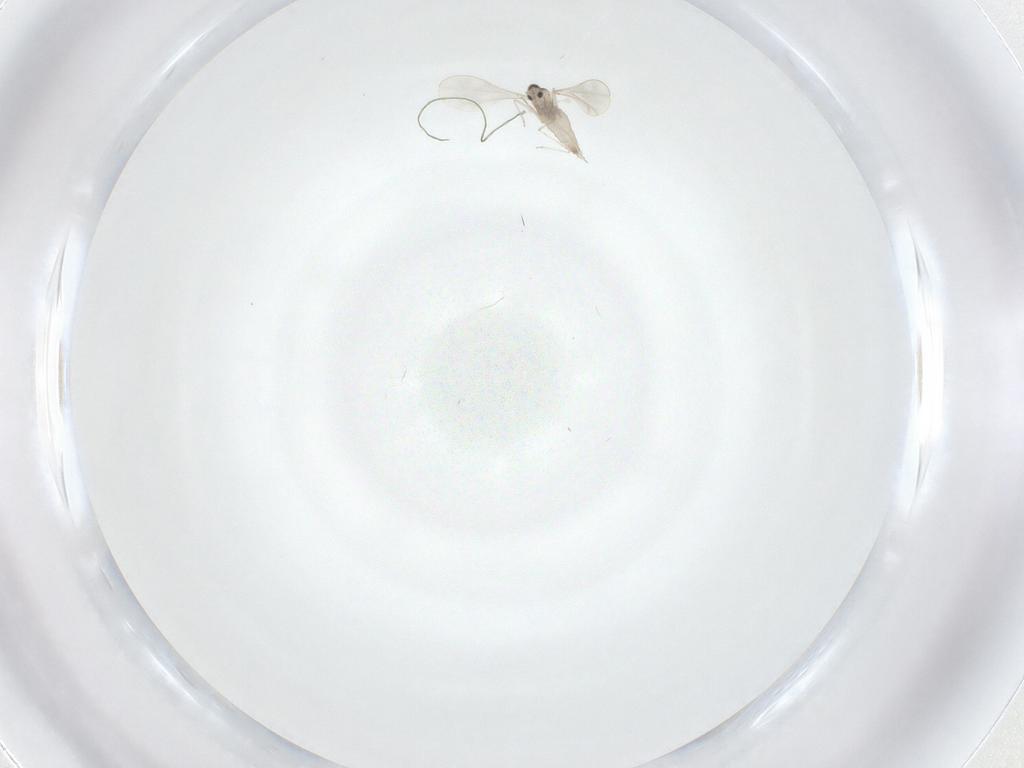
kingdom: Animalia
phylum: Arthropoda
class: Insecta
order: Diptera
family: Cecidomyiidae
